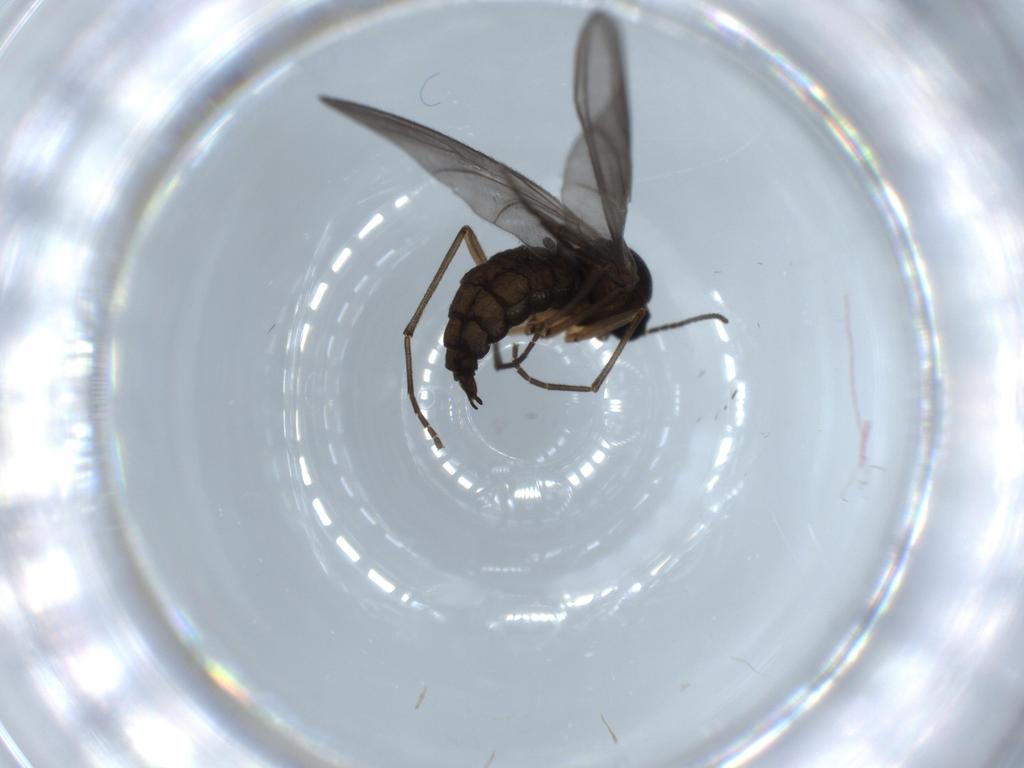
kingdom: Animalia
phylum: Arthropoda
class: Insecta
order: Diptera
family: Sciaridae
